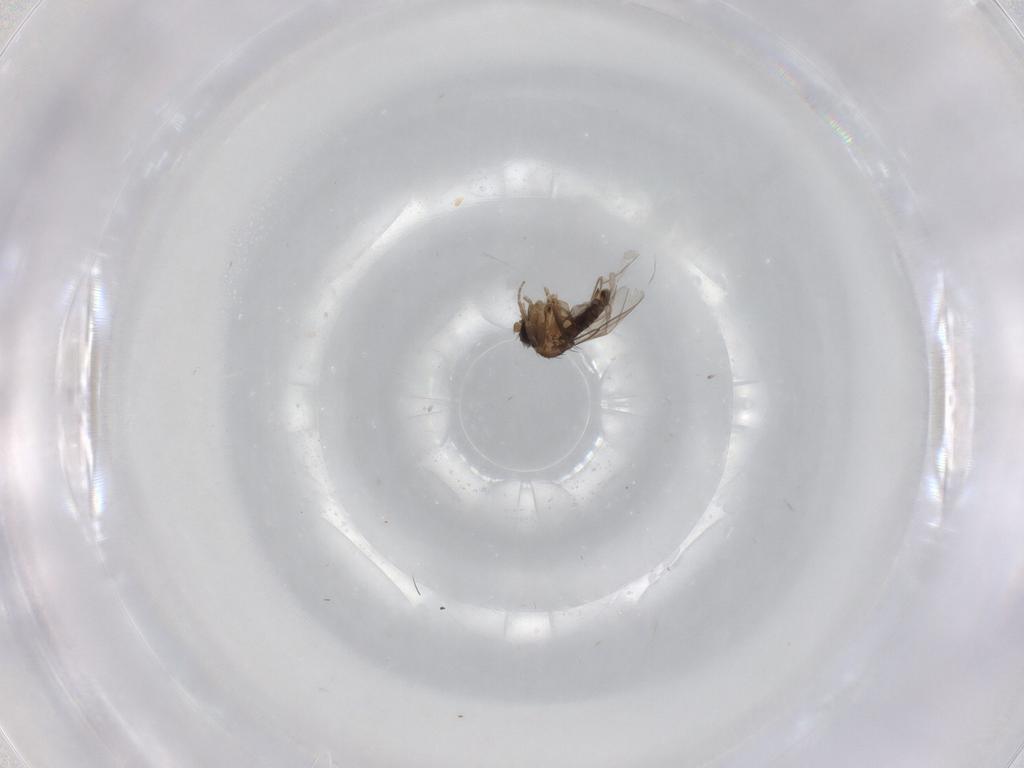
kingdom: Animalia
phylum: Arthropoda
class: Insecta
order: Diptera
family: Phoridae
